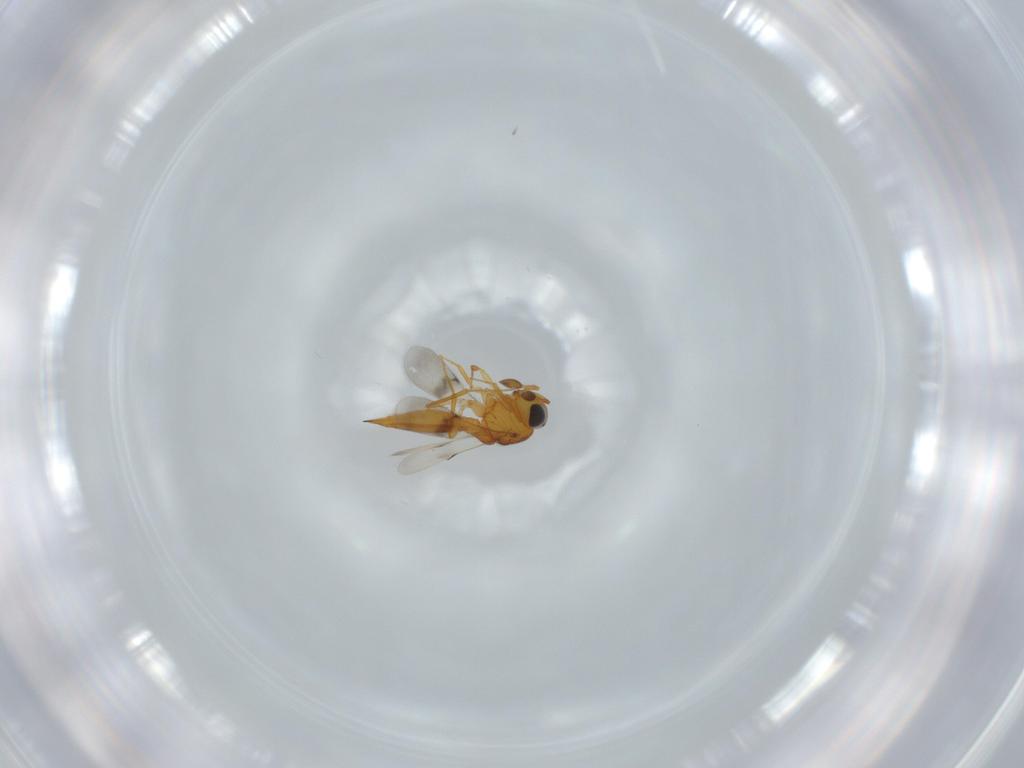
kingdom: Animalia
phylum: Arthropoda
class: Insecta
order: Hymenoptera
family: Scelionidae
